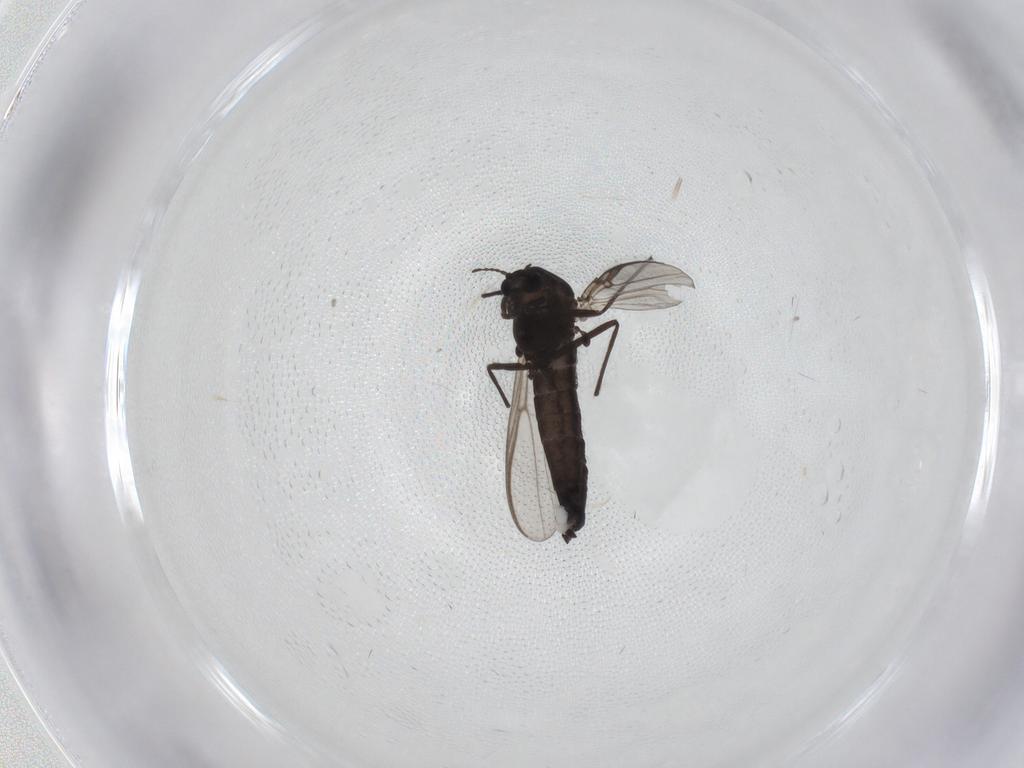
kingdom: Animalia
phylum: Arthropoda
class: Insecta
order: Diptera
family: Chironomidae
